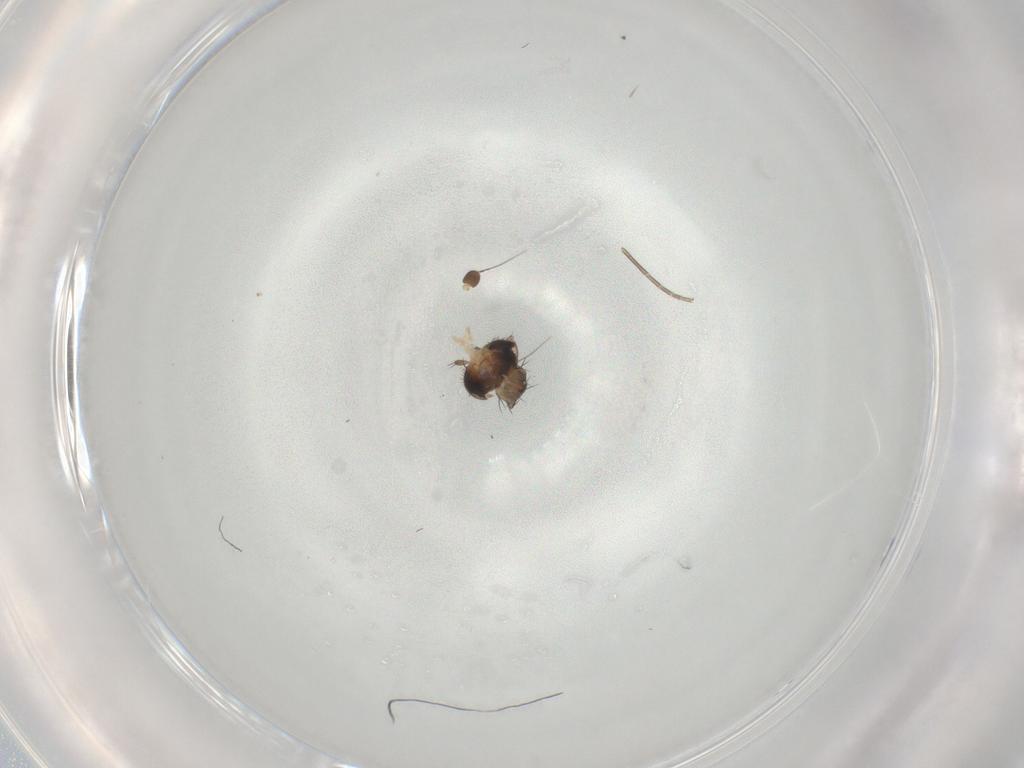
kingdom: Animalia
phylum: Arthropoda
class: Insecta
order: Diptera
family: Phoridae
